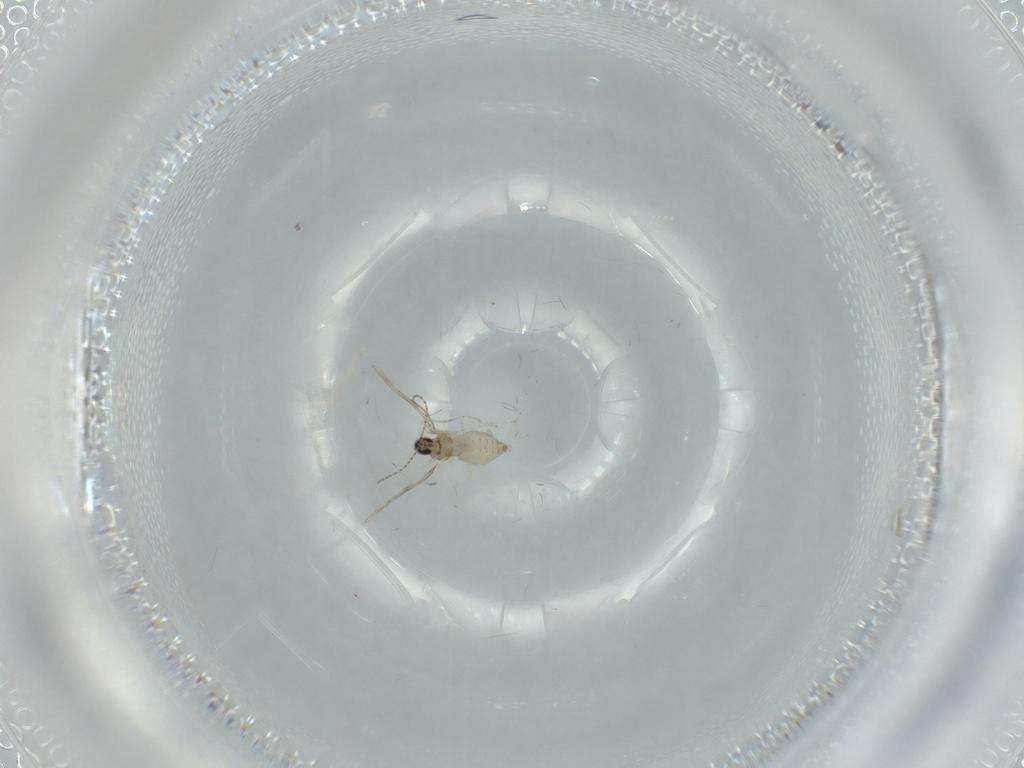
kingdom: Animalia
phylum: Arthropoda
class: Insecta
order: Diptera
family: Cecidomyiidae
